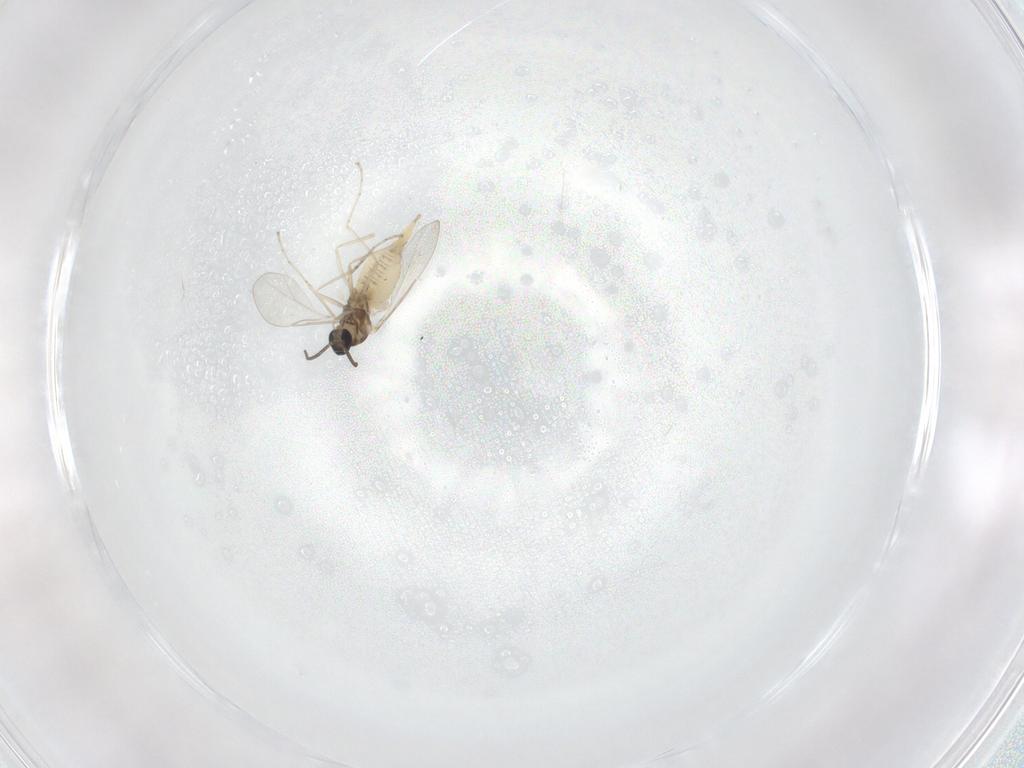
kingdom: Animalia
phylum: Arthropoda
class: Insecta
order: Diptera
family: Cecidomyiidae
